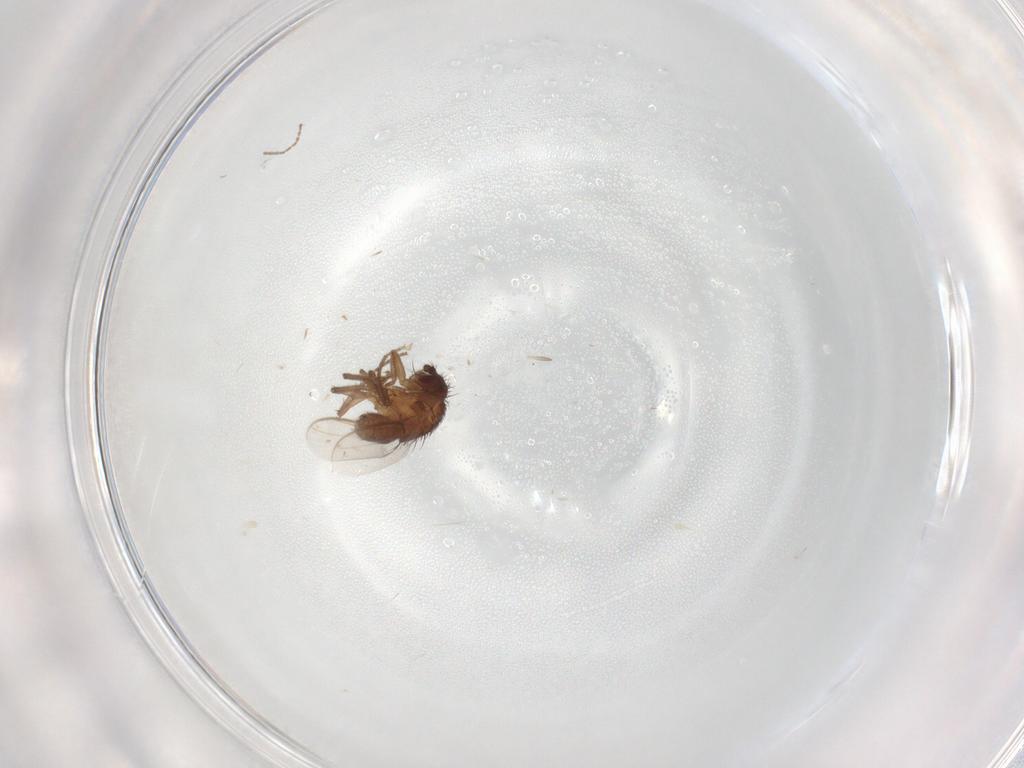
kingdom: Animalia
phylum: Arthropoda
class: Insecta
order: Diptera
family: Sphaeroceridae
